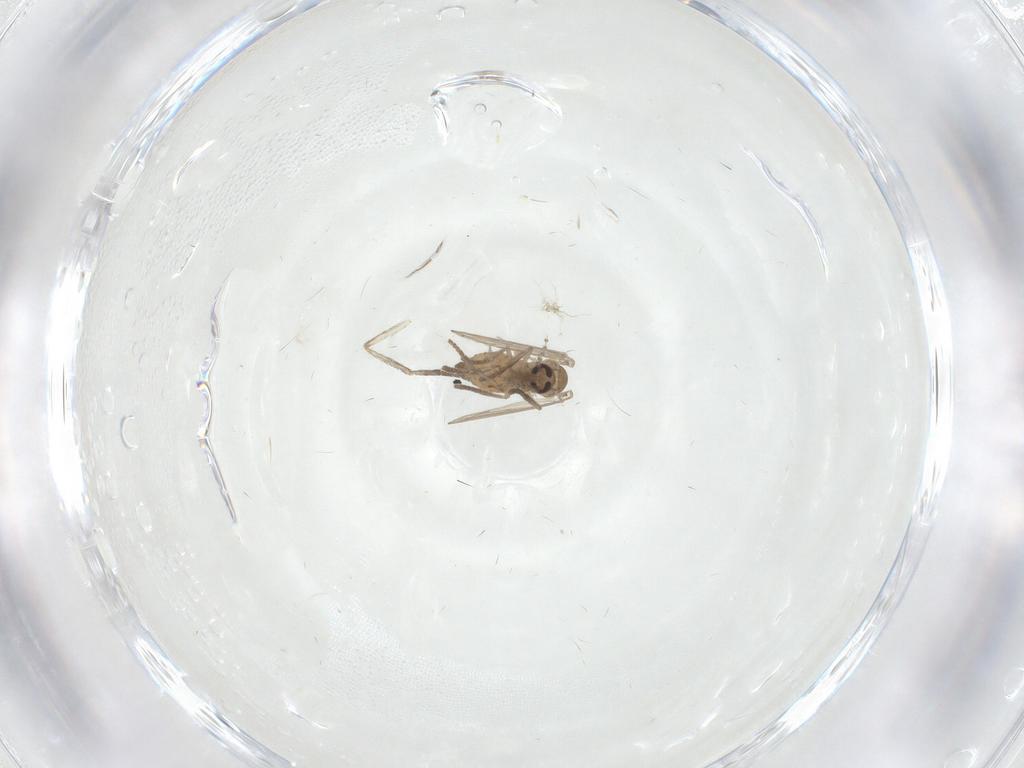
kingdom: Animalia
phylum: Arthropoda
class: Insecta
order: Diptera
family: Psychodidae
